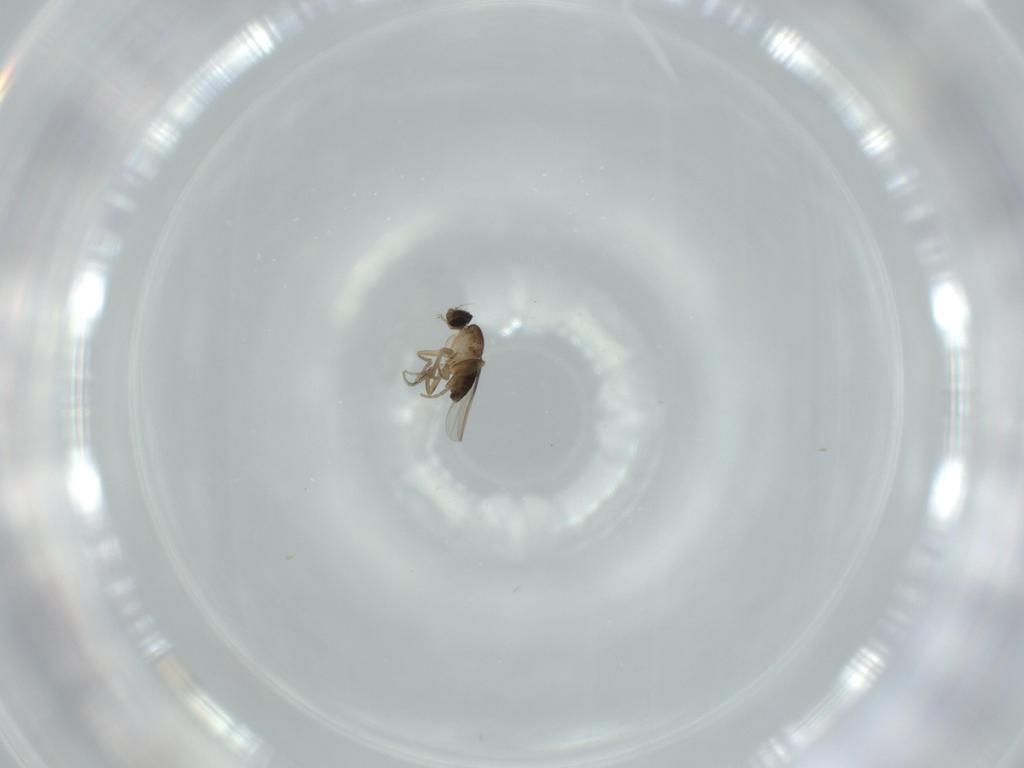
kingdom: Animalia
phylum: Arthropoda
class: Insecta
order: Diptera
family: Phoridae
